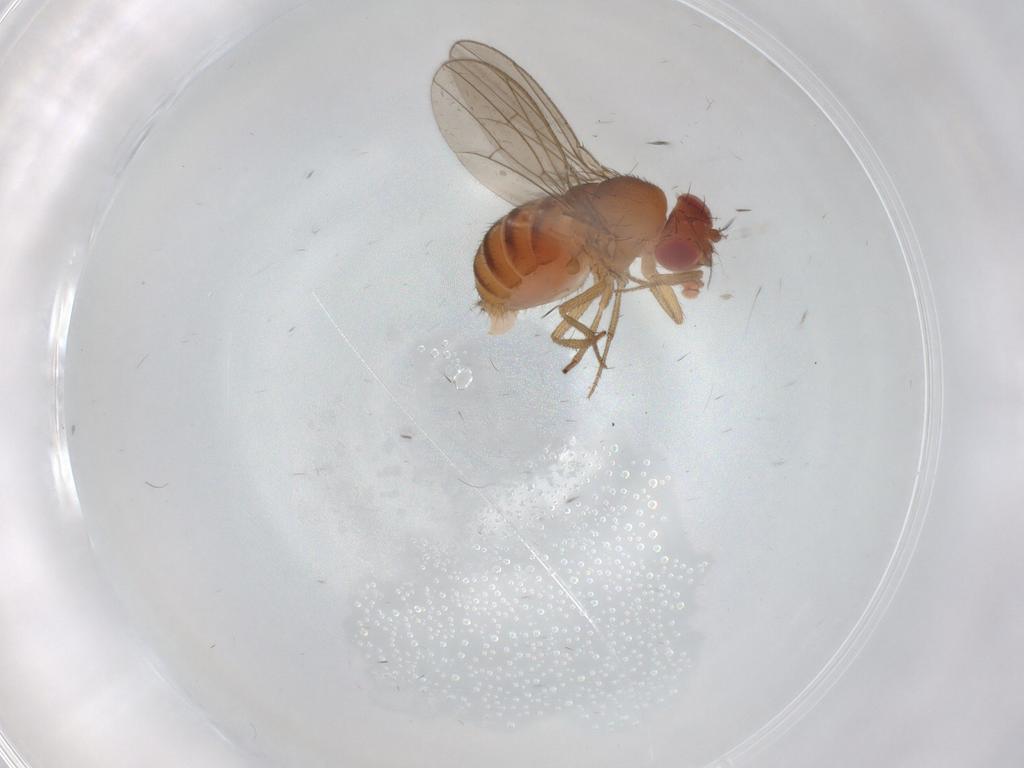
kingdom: Animalia
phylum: Arthropoda
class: Insecta
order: Diptera
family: Drosophilidae
